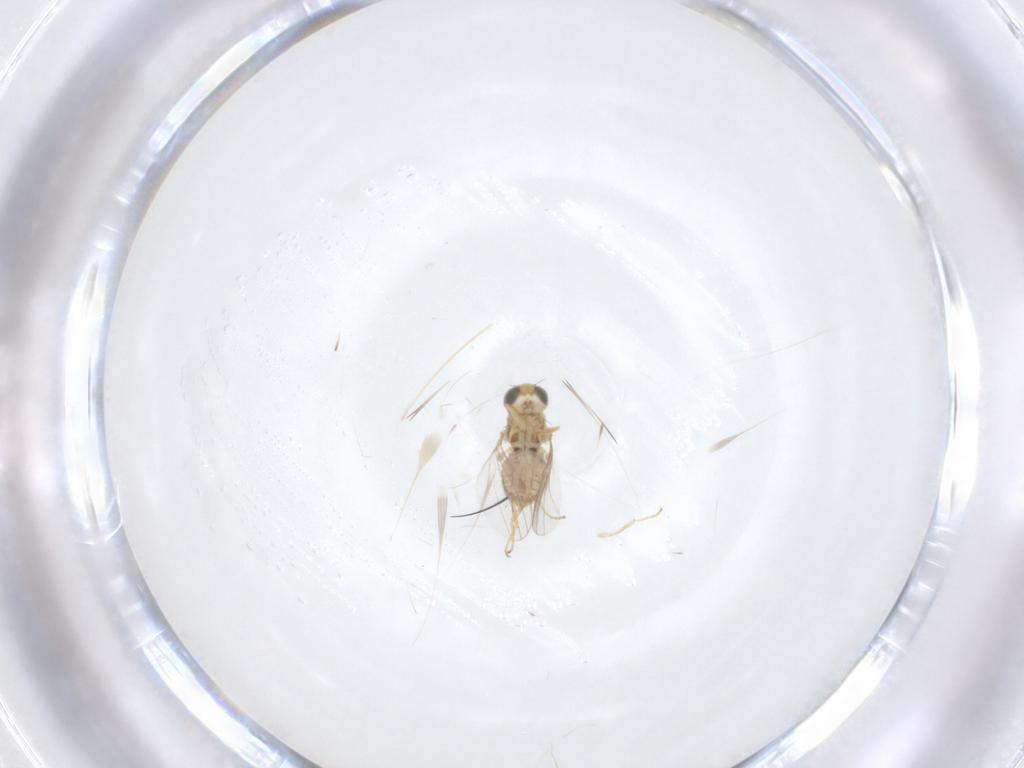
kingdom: Animalia
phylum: Arthropoda
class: Insecta
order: Diptera
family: Chyromyidae
